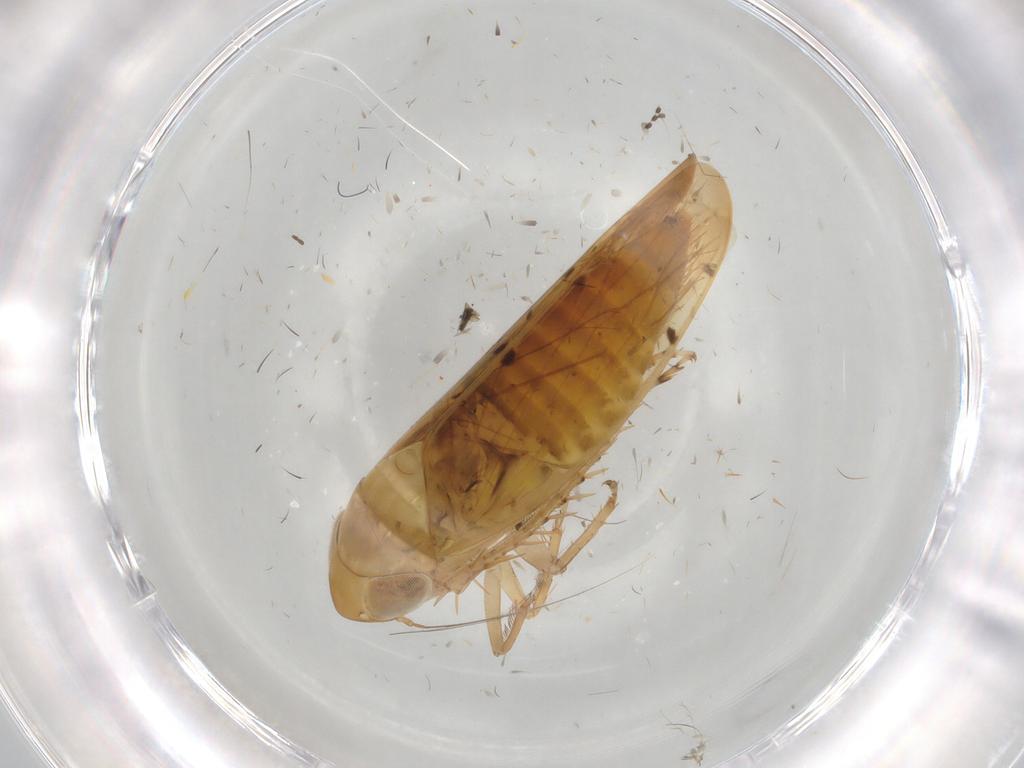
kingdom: Animalia
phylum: Arthropoda
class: Insecta
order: Hemiptera
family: Cicadellidae
